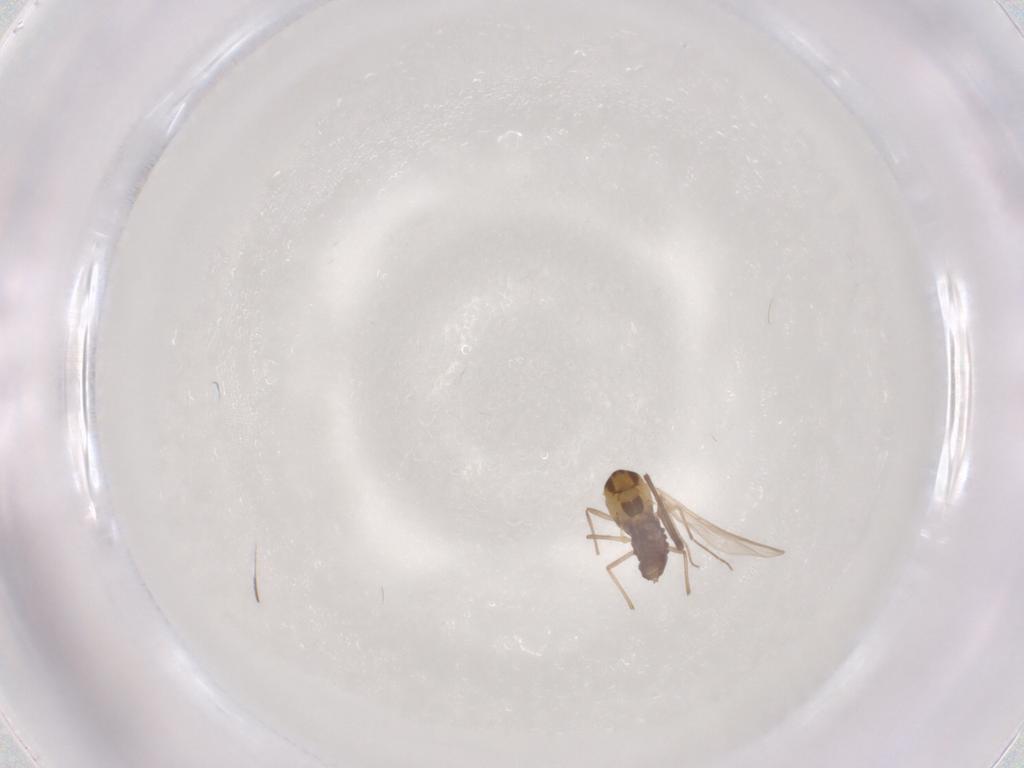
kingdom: Animalia
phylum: Arthropoda
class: Insecta
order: Diptera
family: Chironomidae
